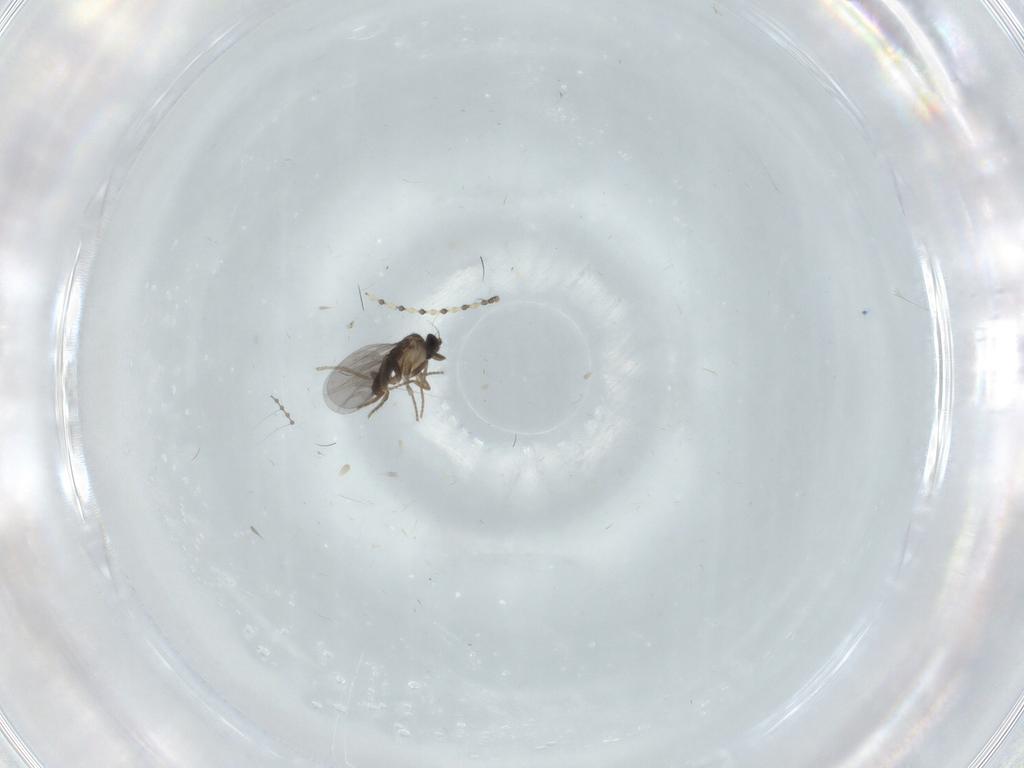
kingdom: Animalia
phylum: Arthropoda
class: Insecta
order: Diptera
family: Cecidomyiidae
